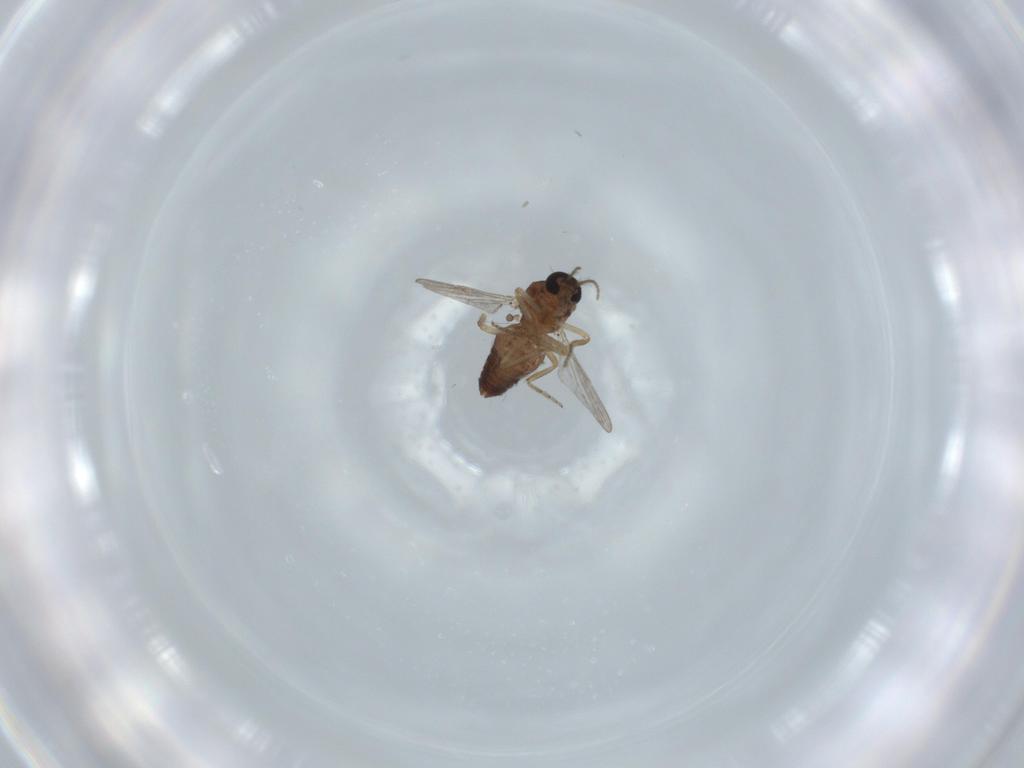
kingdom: Animalia
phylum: Arthropoda
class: Insecta
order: Diptera
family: Ceratopogonidae
